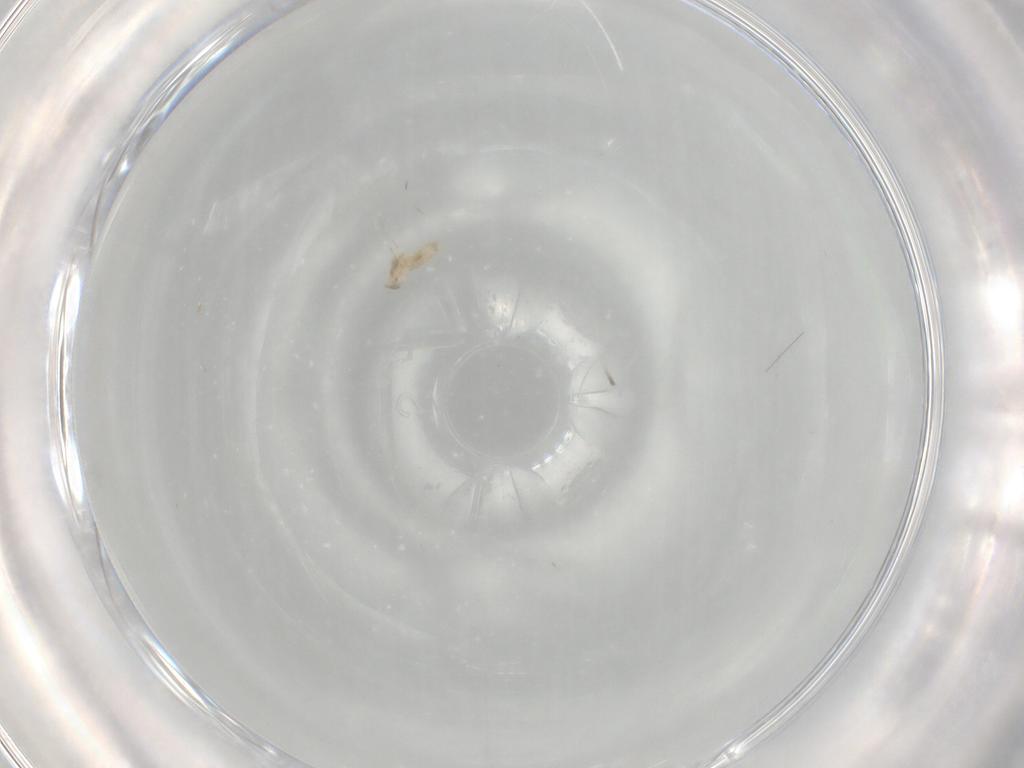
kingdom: Animalia
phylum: Arthropoda
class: Insecta
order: Diptera
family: Cecidomyiidae
